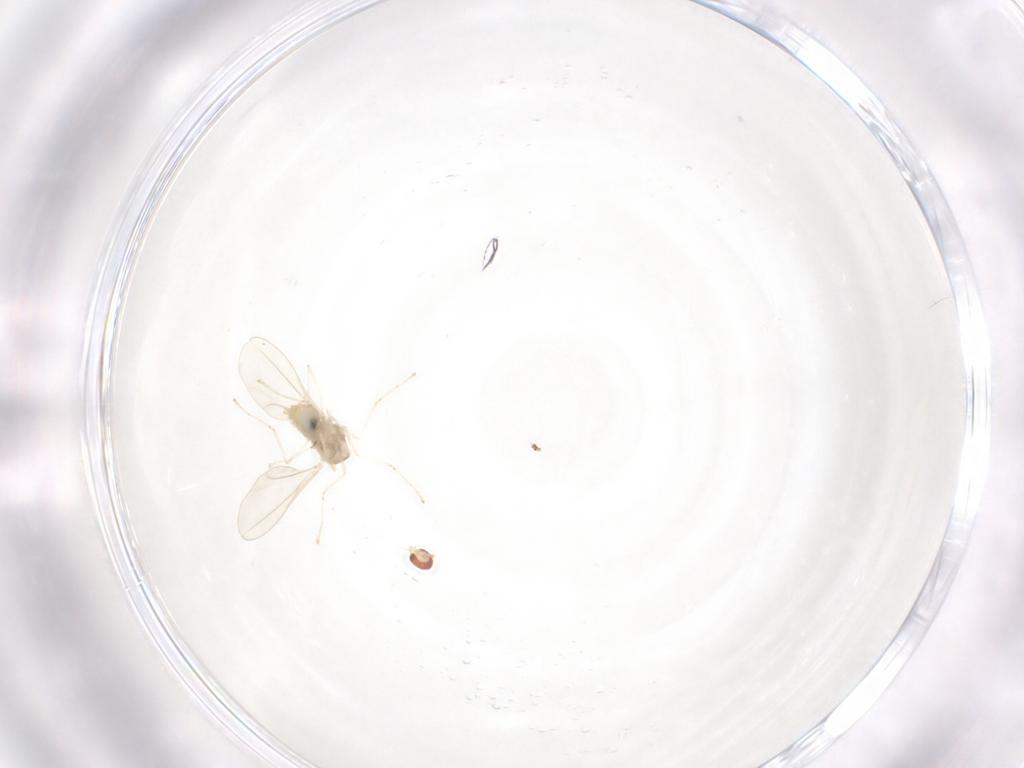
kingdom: Animalia
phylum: Arthropoda
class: Insecta
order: Diptera
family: Cecidomyiidae
